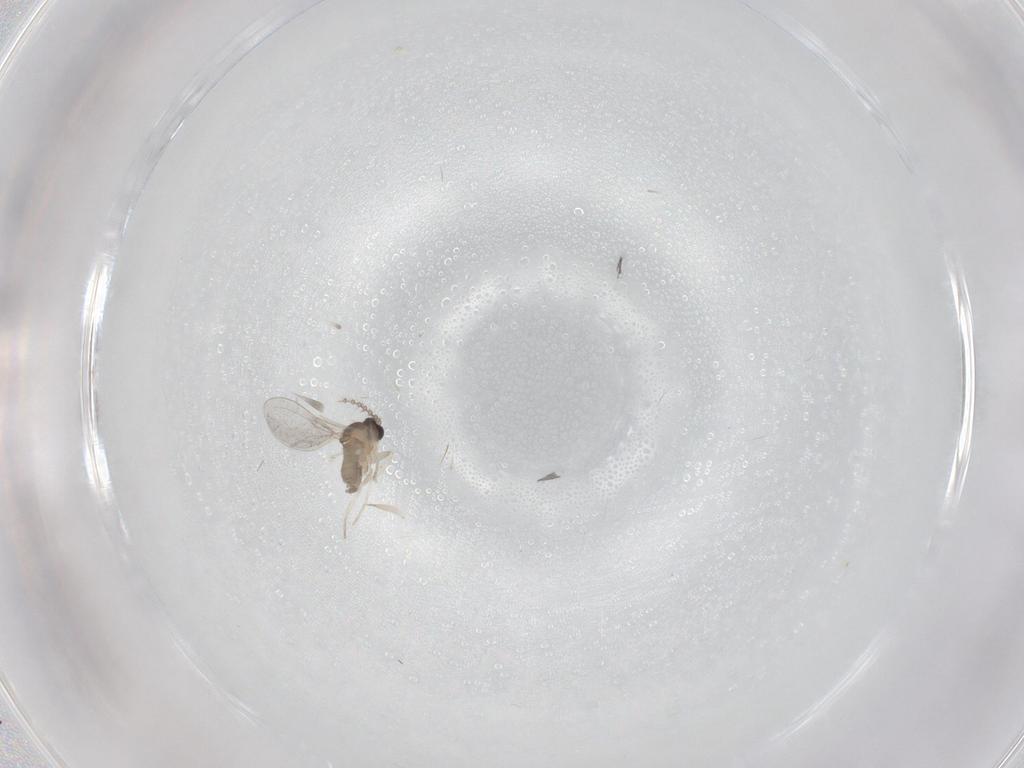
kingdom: Animalia
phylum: Arthropoda
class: Insecta
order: Diptera
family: Cecidomyiidae
